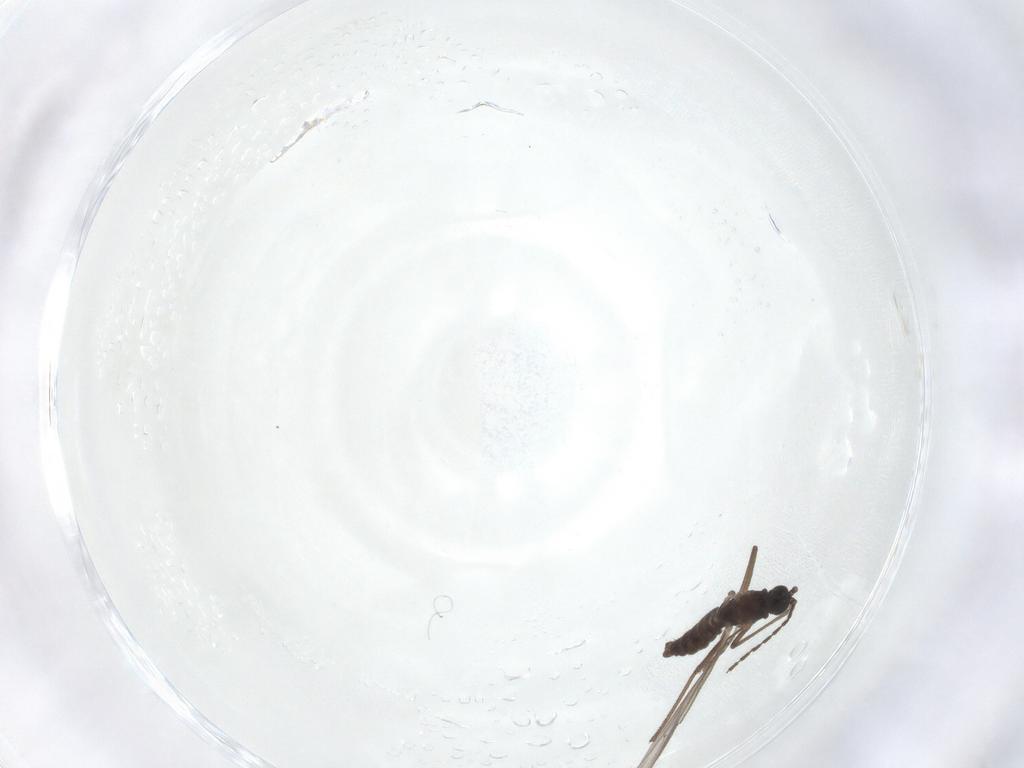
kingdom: Animalia
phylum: Arthropoda
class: Insecta
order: Diptera
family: Sciaridae
